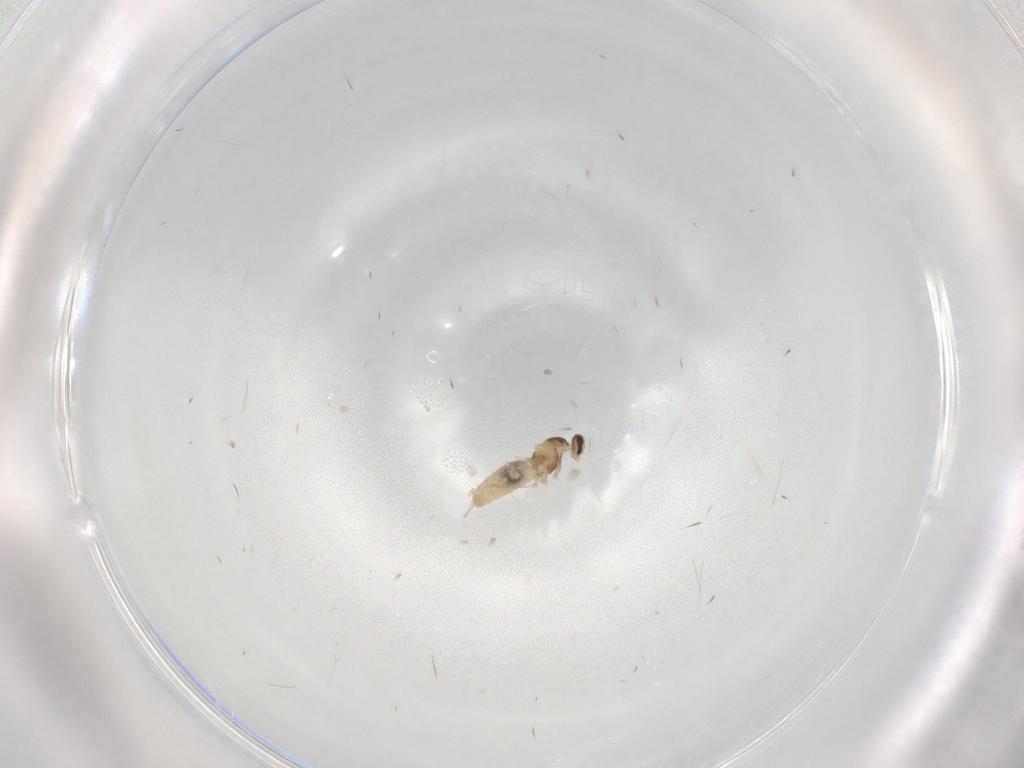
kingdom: Animalia
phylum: Arthropoda
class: Insecta
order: Diptera
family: Cecidomyiidae
